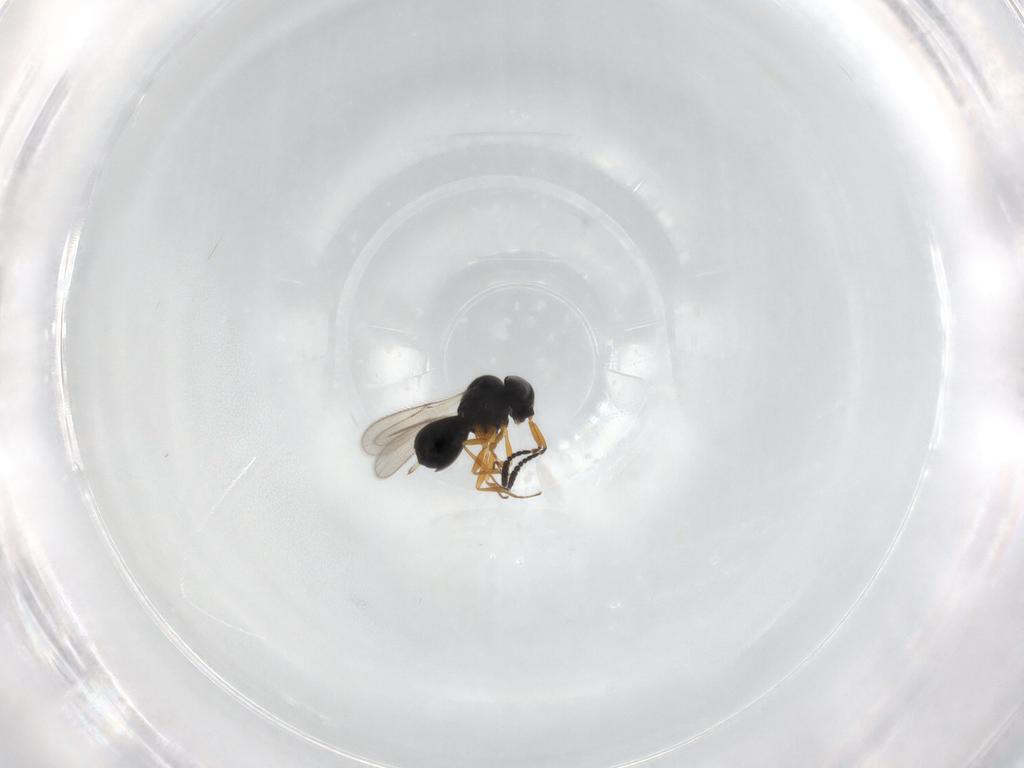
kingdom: Animalia
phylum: Arthropoda
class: Insecta
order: Hymenoptera
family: Scelionidae
